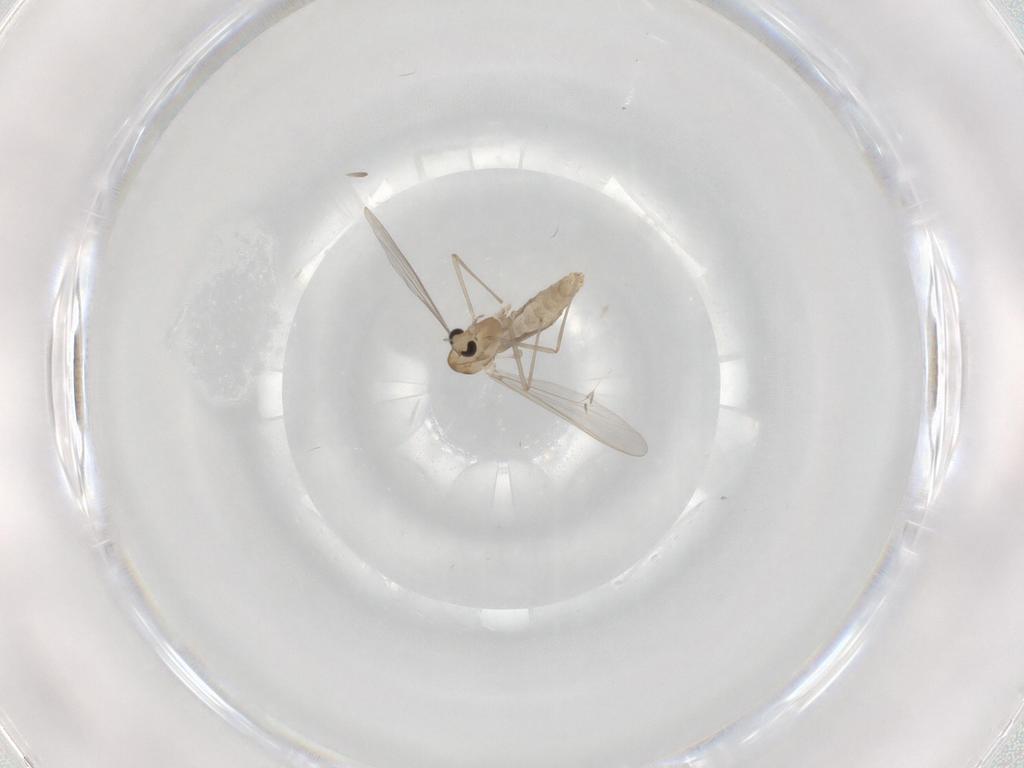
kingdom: Animalia
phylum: Arthropoda
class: Insecta
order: Diptera
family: Chironomidae
